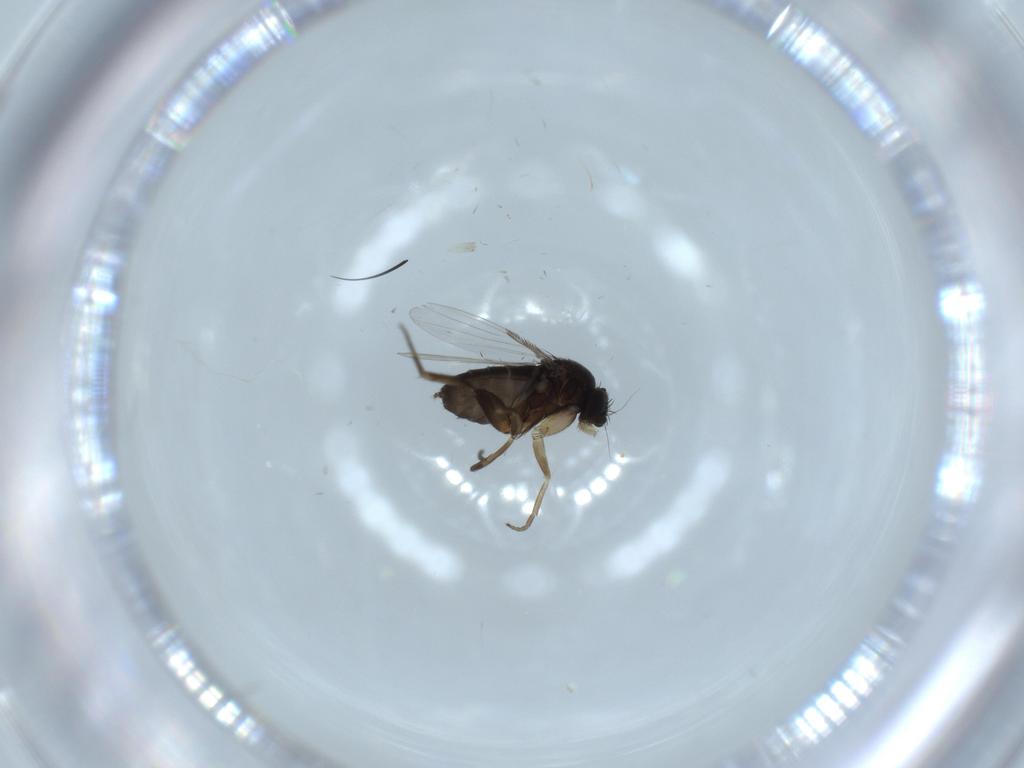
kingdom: Animalia
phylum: Arthropoda
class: Insecta
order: Diptera
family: Phoridae
